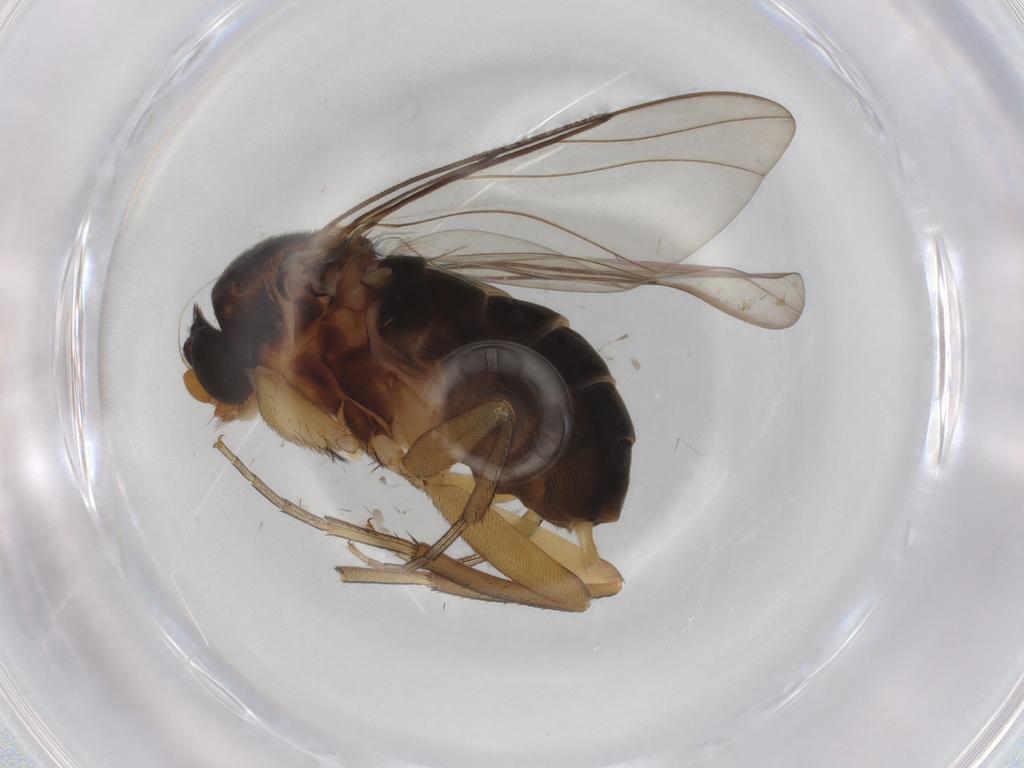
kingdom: Animalia
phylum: Arthropoda
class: Insecta
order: Diptera
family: Phoridae
